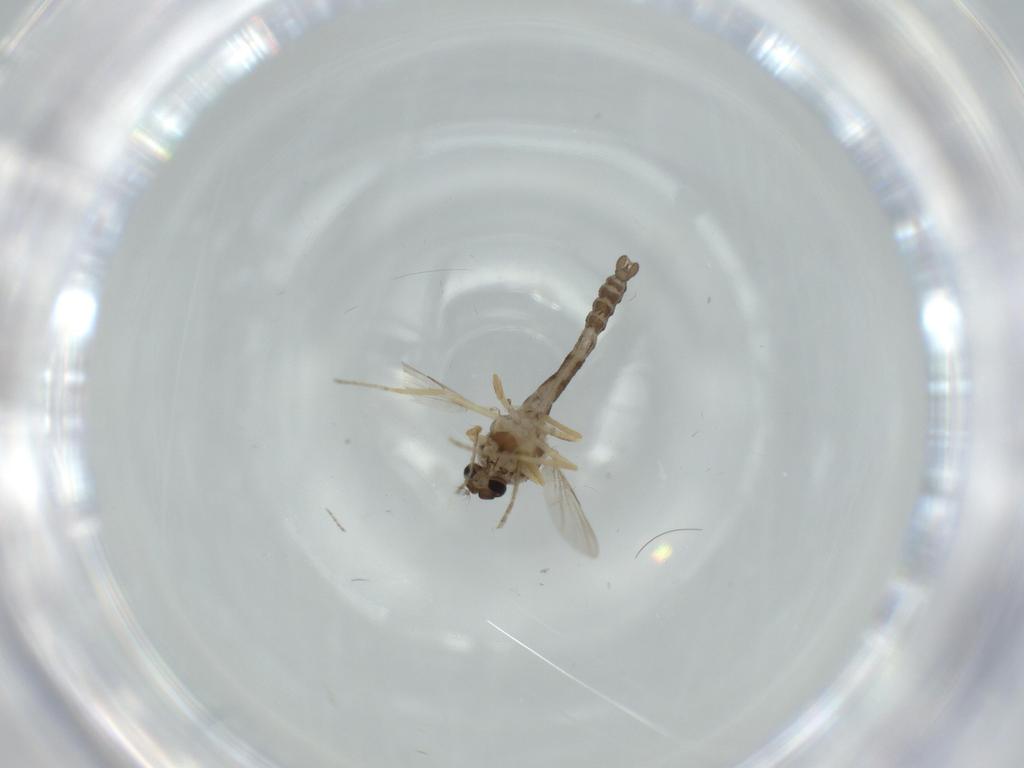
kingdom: Animalia
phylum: Arthropoda
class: Insecta
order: Diptera
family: Ceratopogonidae
